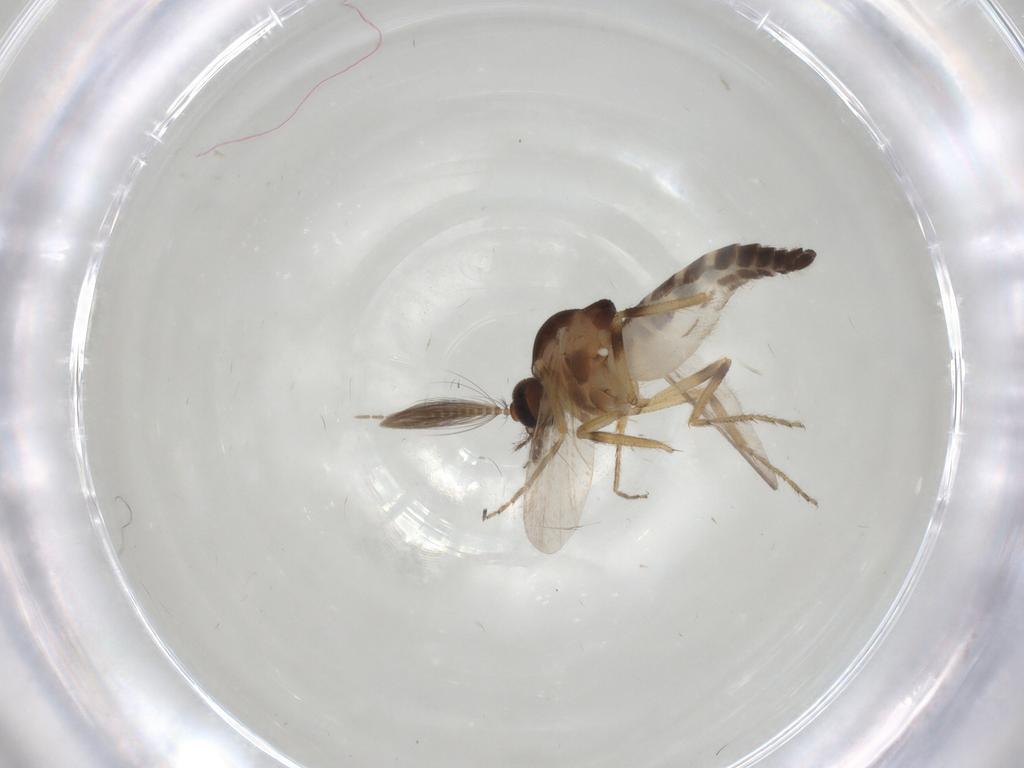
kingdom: Animalia
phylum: Arthropoda
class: Insecta
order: Diptera
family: Ceratopogonidae
